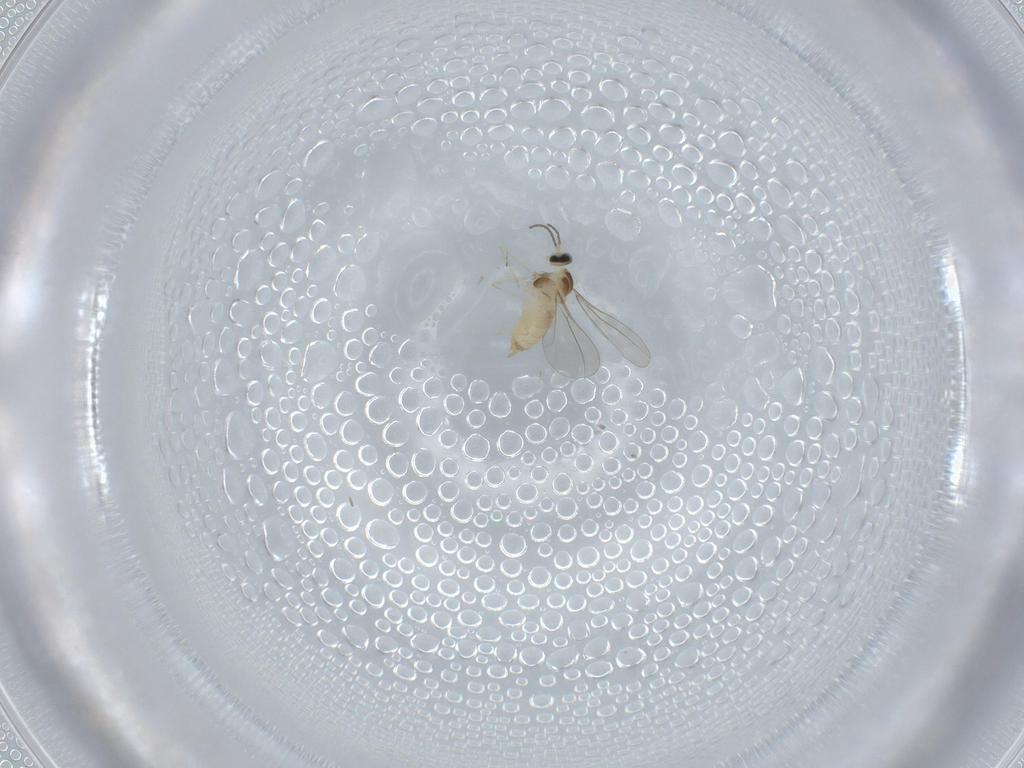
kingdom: Animalia
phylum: Arthropoda
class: Insecta
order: Diptera
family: Cecidomyiidae
